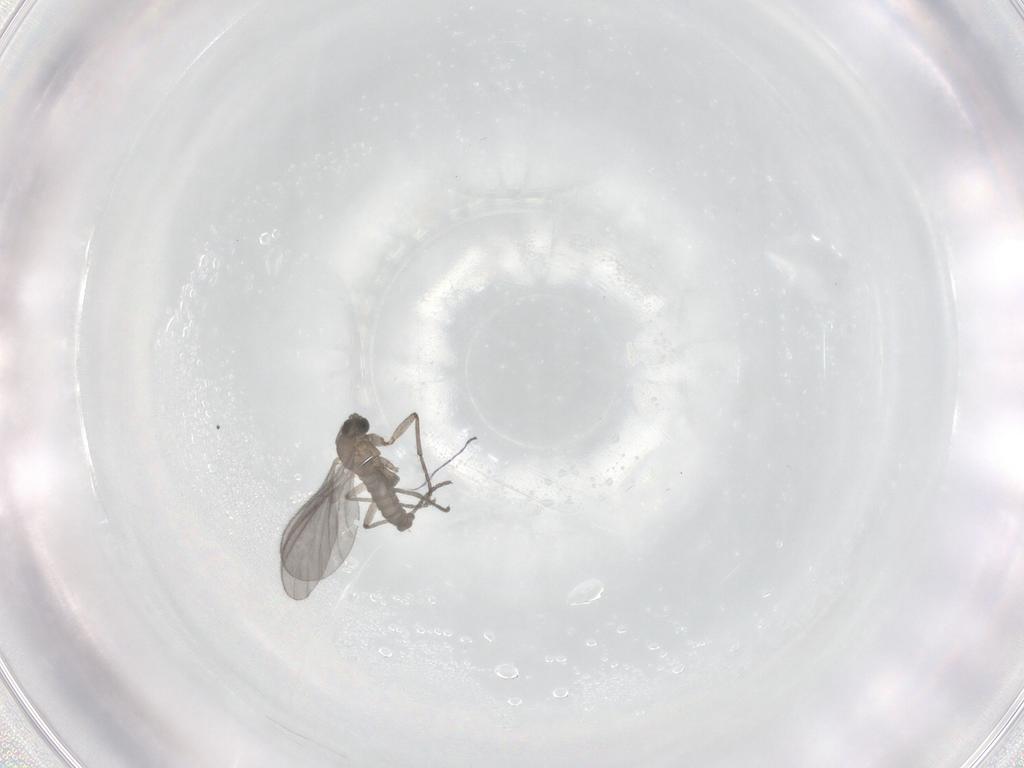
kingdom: Animalia
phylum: Arthropoda
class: Insecta
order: Diptera
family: Sciaridae
